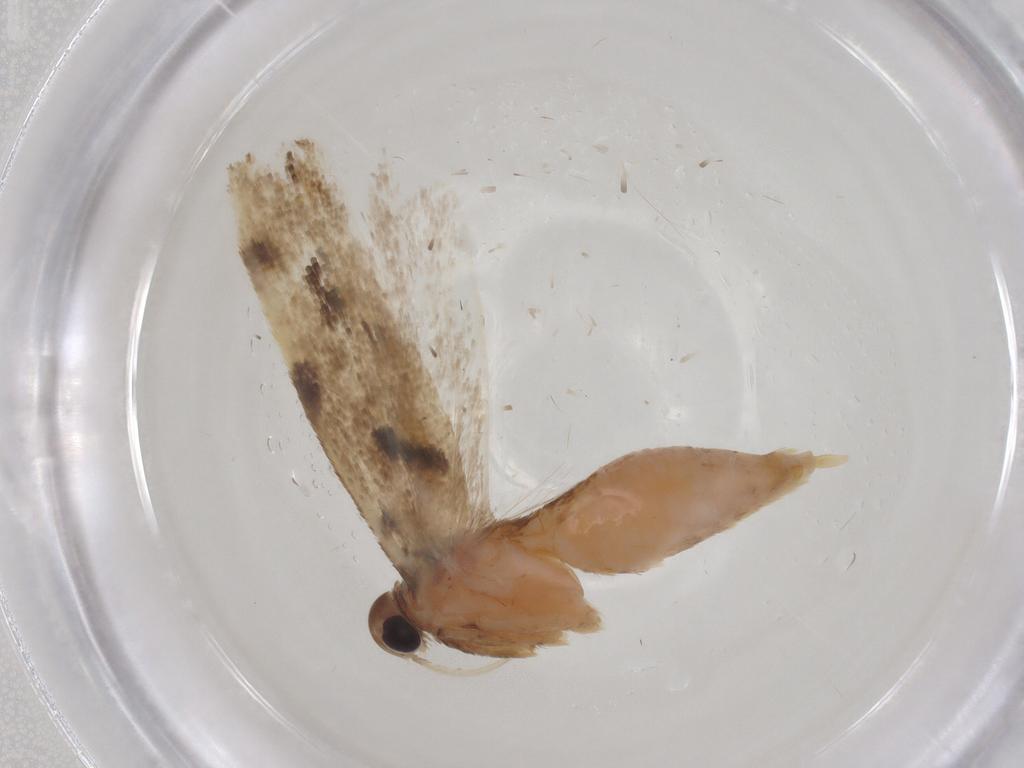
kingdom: Animalia
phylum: Arthropoda
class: Insecta
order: Lepidoptera
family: Gelechiidae
